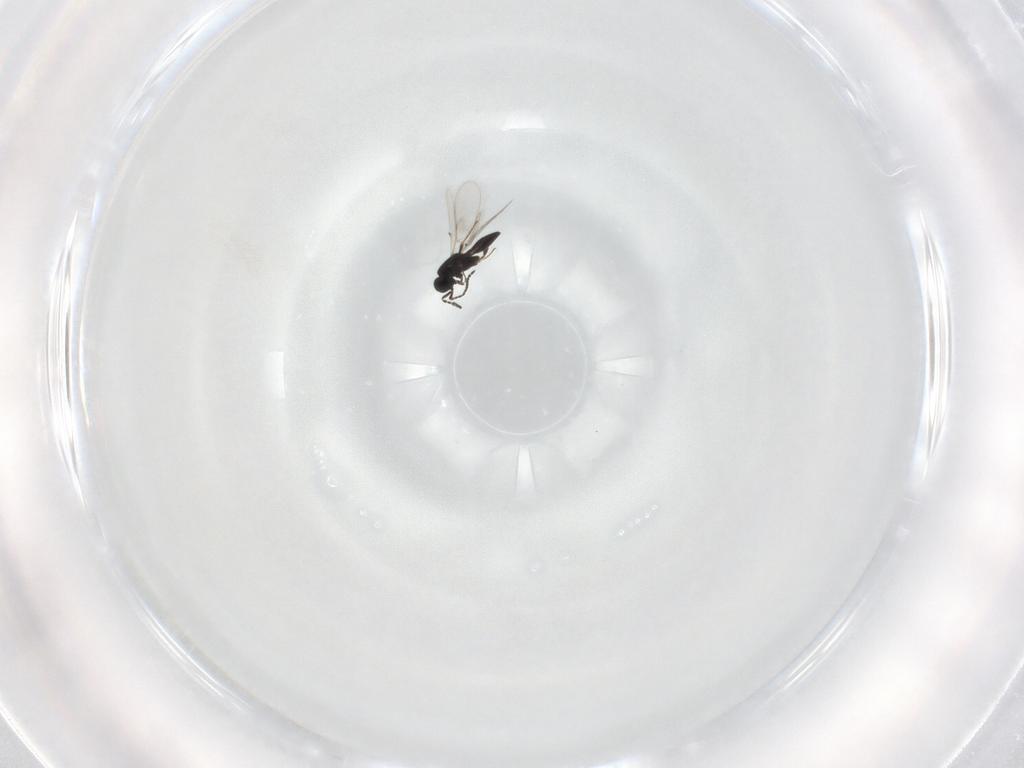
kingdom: Animalia
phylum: Arthropoda
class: Insecta
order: Hymenoptera
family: Scelionidae
